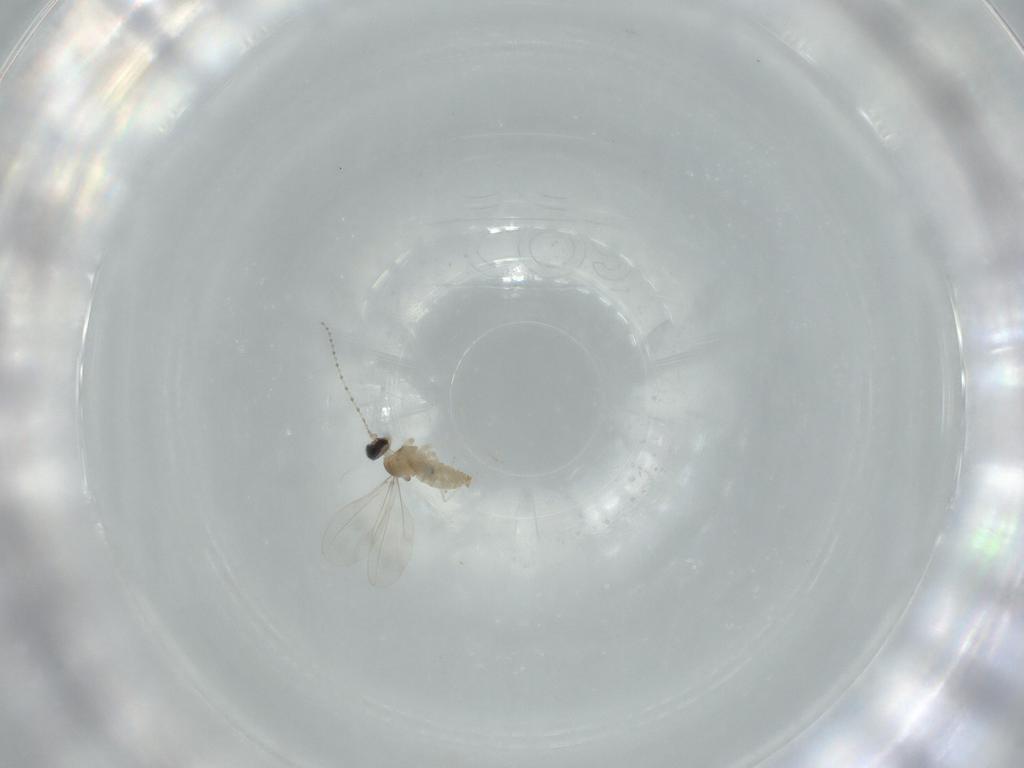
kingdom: Animalia
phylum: Arthropoda
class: Insecta
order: Diptera
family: Cecidomyiidae
